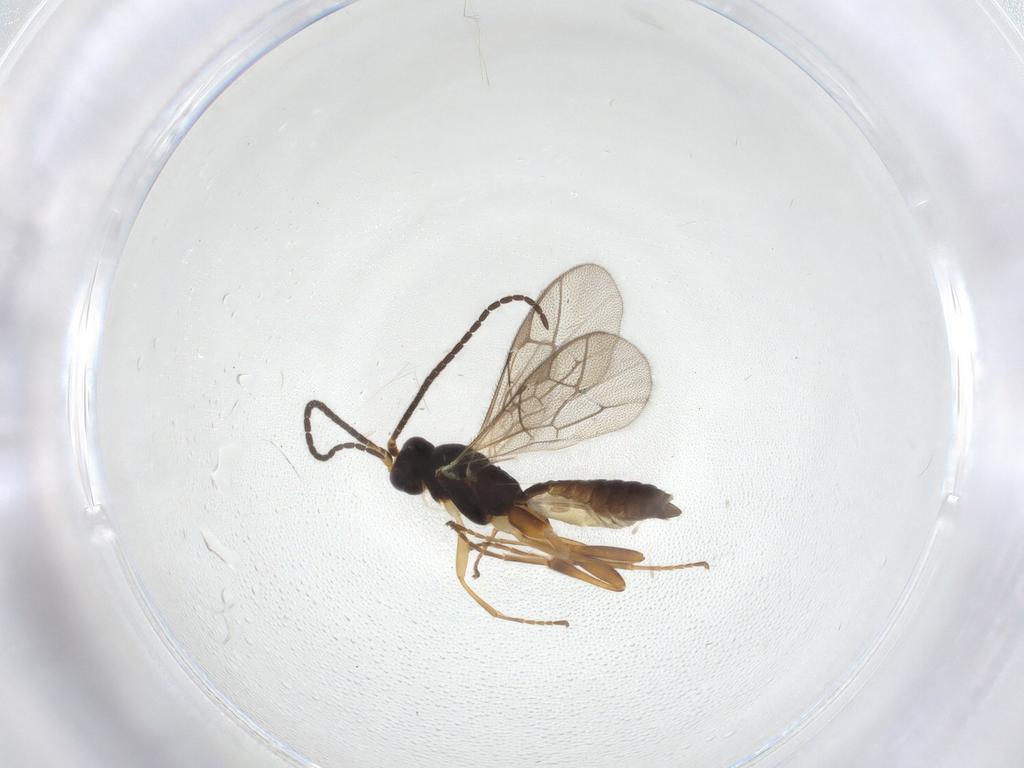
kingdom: Animalia
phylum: Arthropoda
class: Insecta
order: Hymenoptera
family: Ichneumonidae
